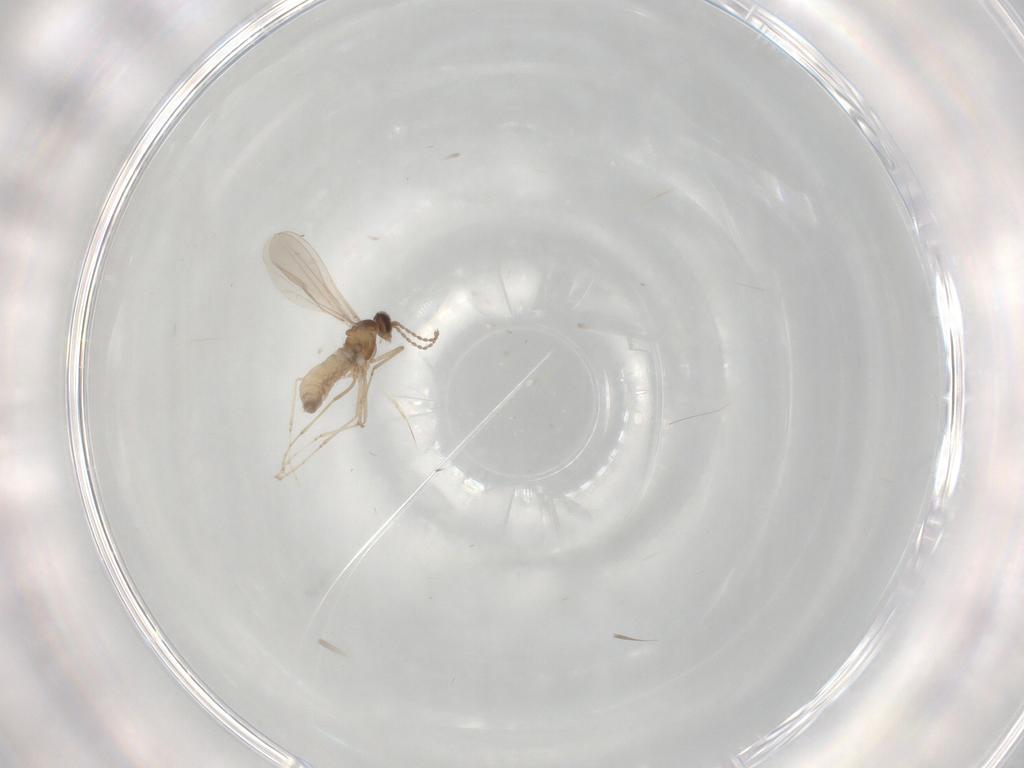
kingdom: Animalia
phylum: Arthropoda
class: Insecta
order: Diptera
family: Cecidomyiidae
